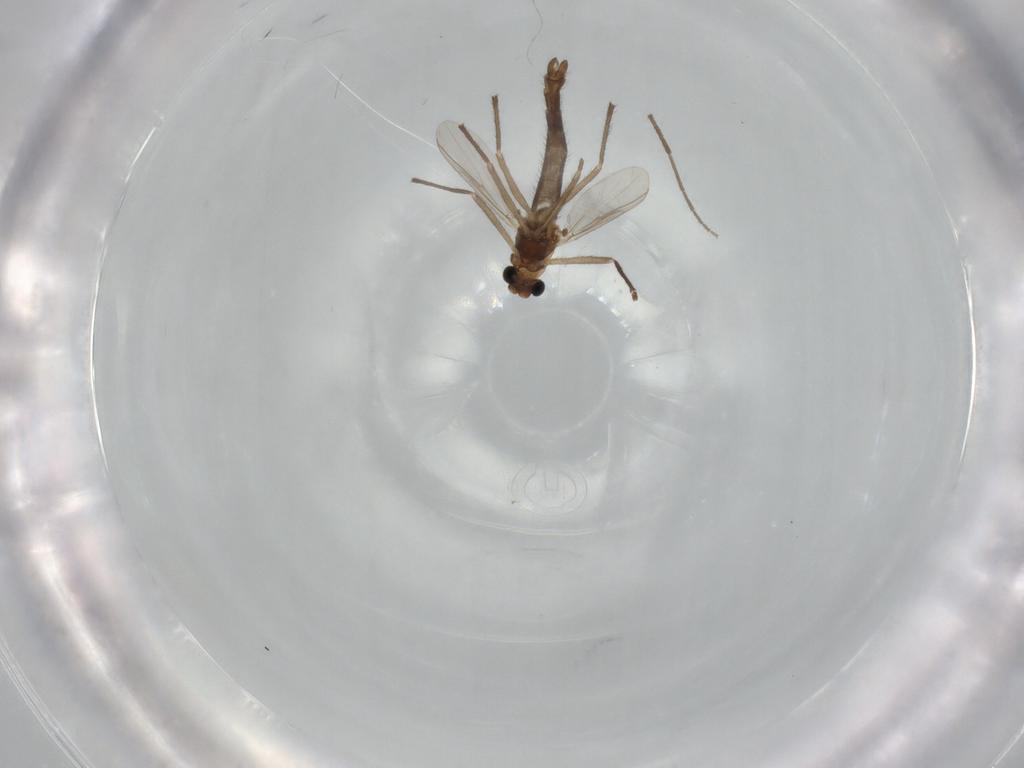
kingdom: Animalia
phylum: Arthropoda
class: Insecta
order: Diptera
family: Chironomidae
